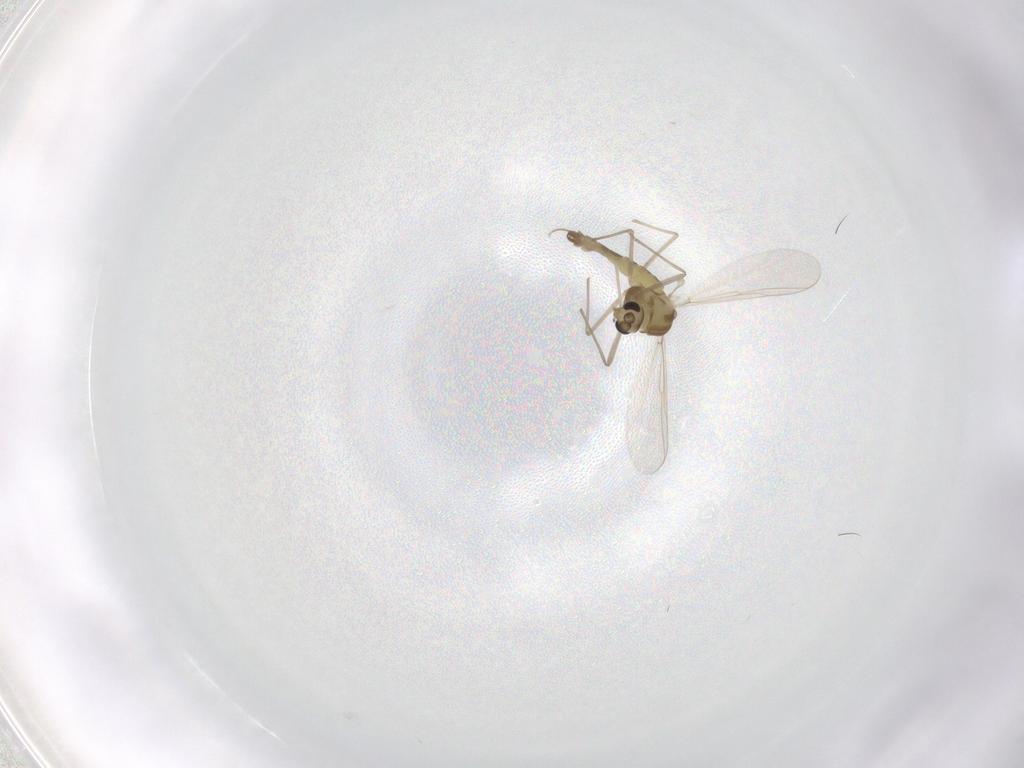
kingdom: Animalia
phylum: Arthropoda
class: Insecta
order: Diptera
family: Chironomidae
